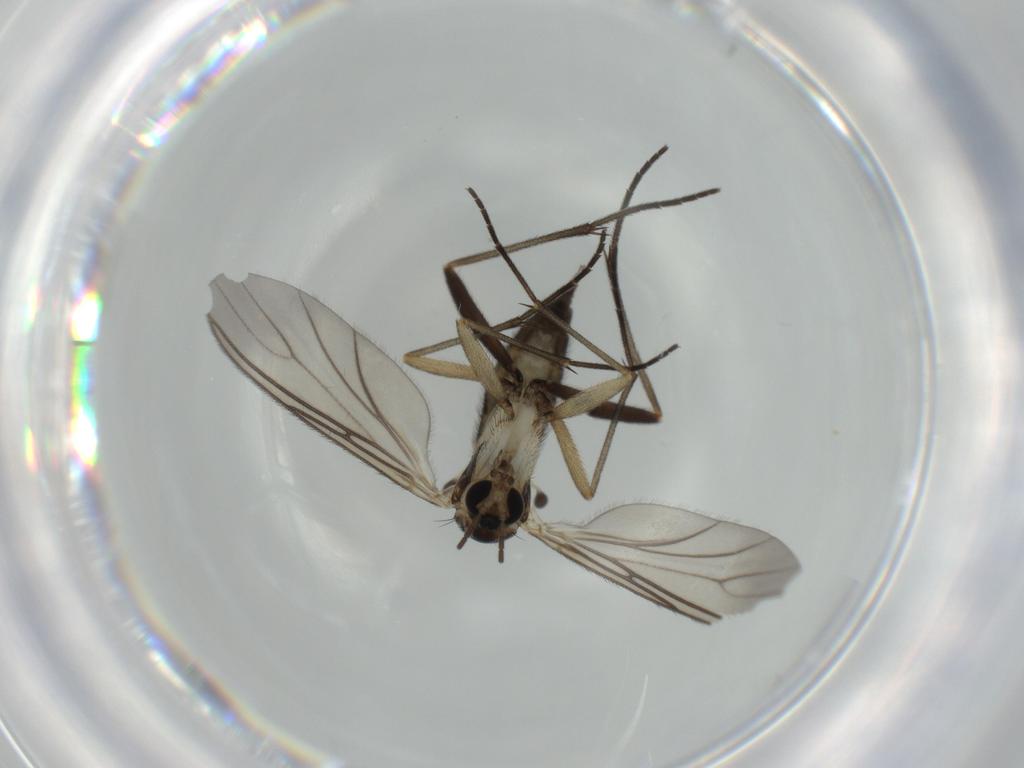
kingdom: Animalia
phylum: Arthropoda
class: Insecta
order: Diptera
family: Sciaridae
